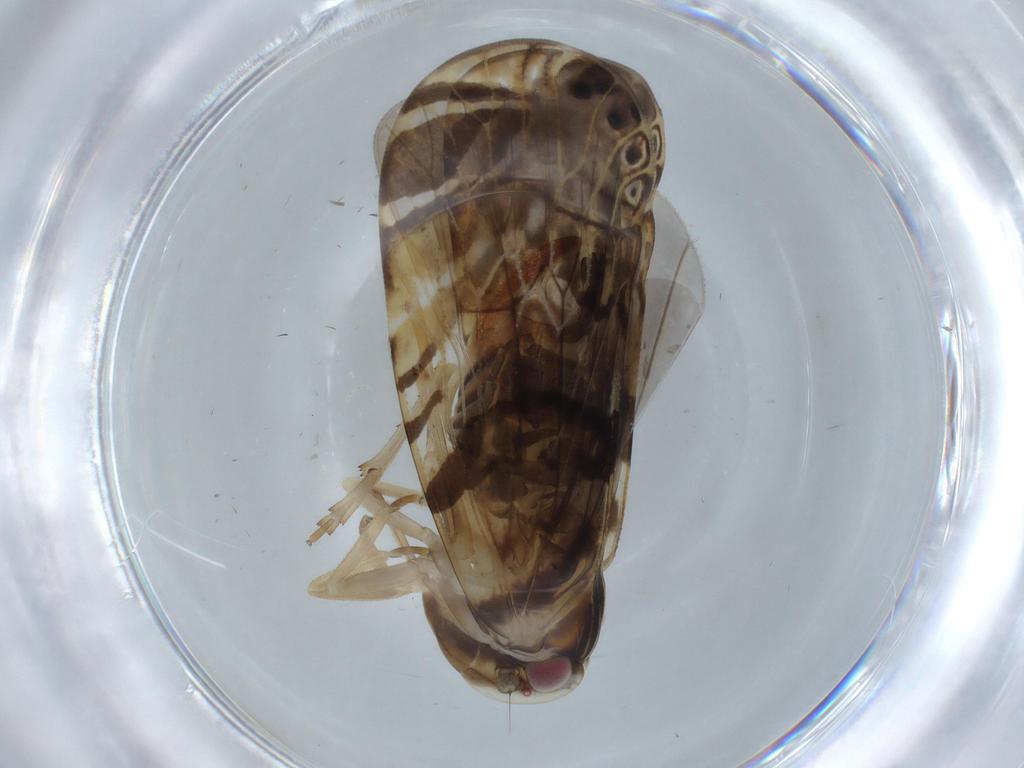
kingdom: Animalia
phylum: Arthropoda
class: Insecta
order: Hemiptera
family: Cixiidae
